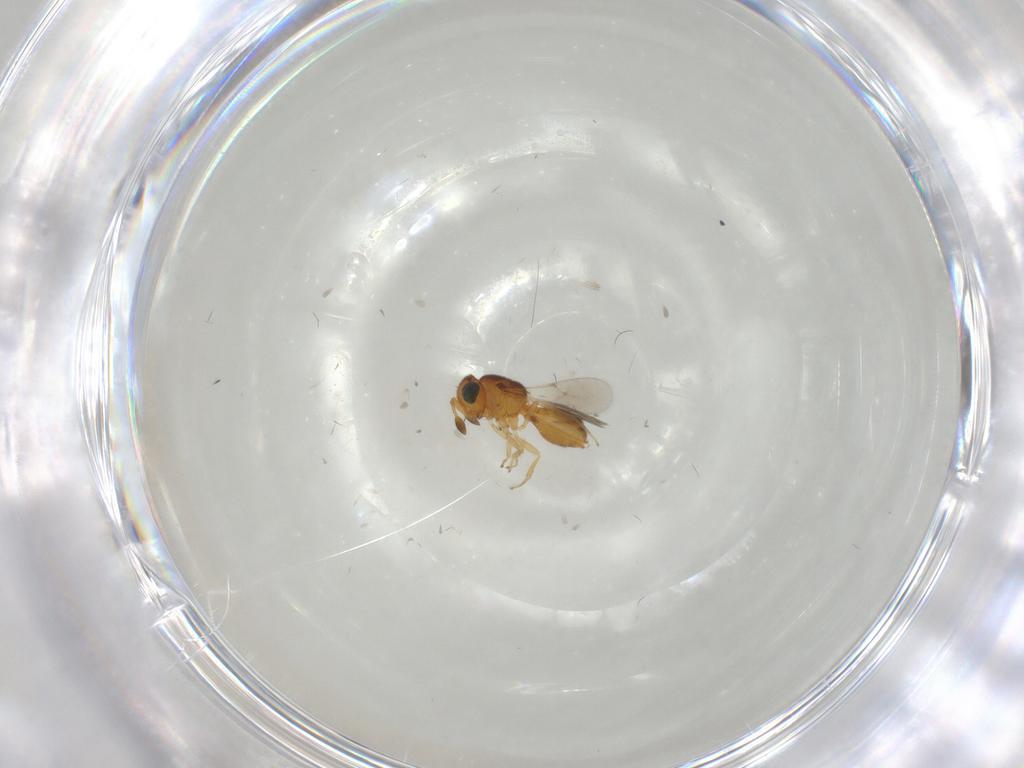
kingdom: Animalia
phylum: Arthropoda
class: Insecta
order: Hymenoptera
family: Scelionidae
